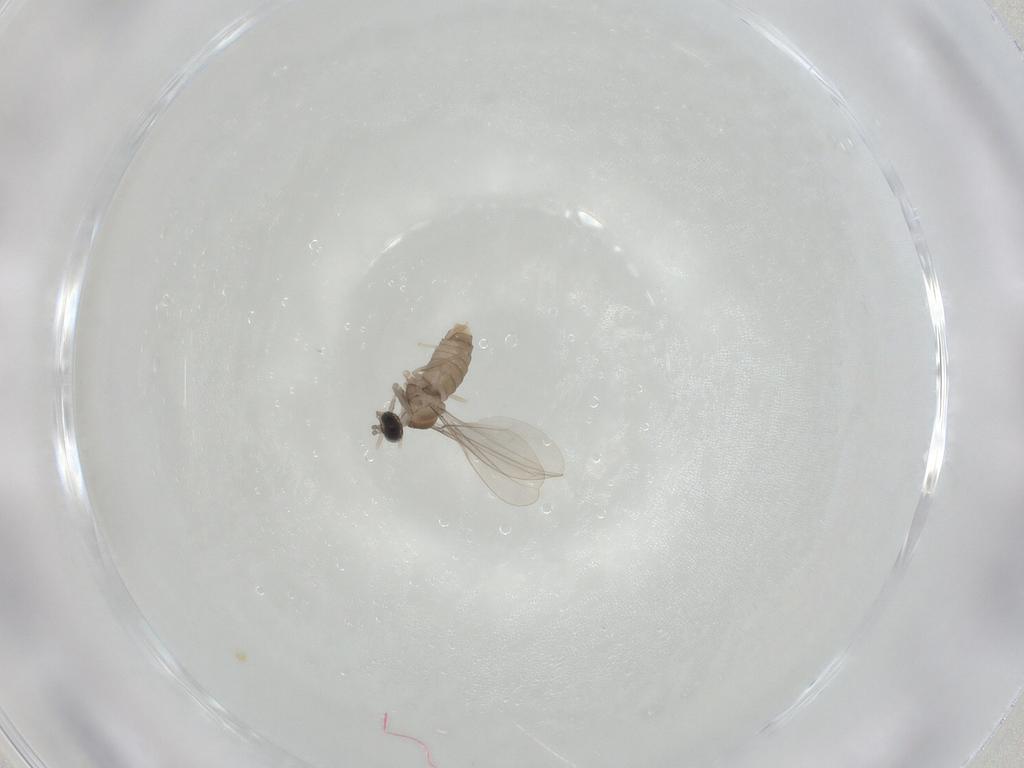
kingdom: Animalia
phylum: Arthropoda
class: Insecta
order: Diptera
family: Cecidomyiidae
